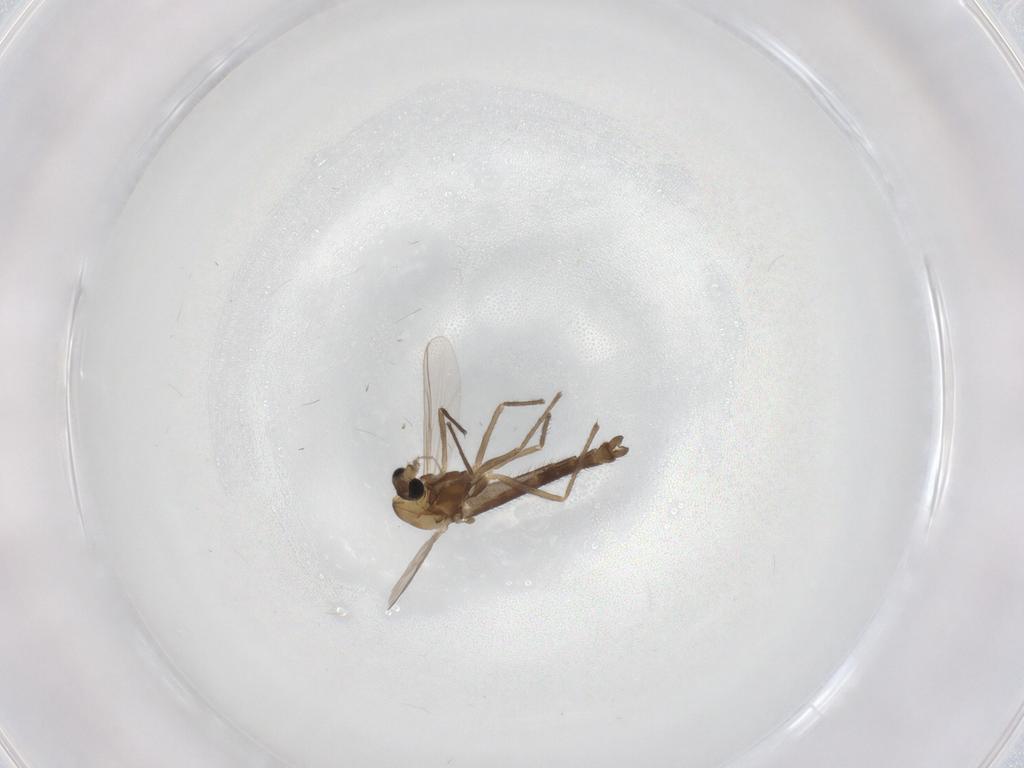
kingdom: Animalia
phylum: Arthropoda
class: Insecta
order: Diptera
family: Chironomidae
